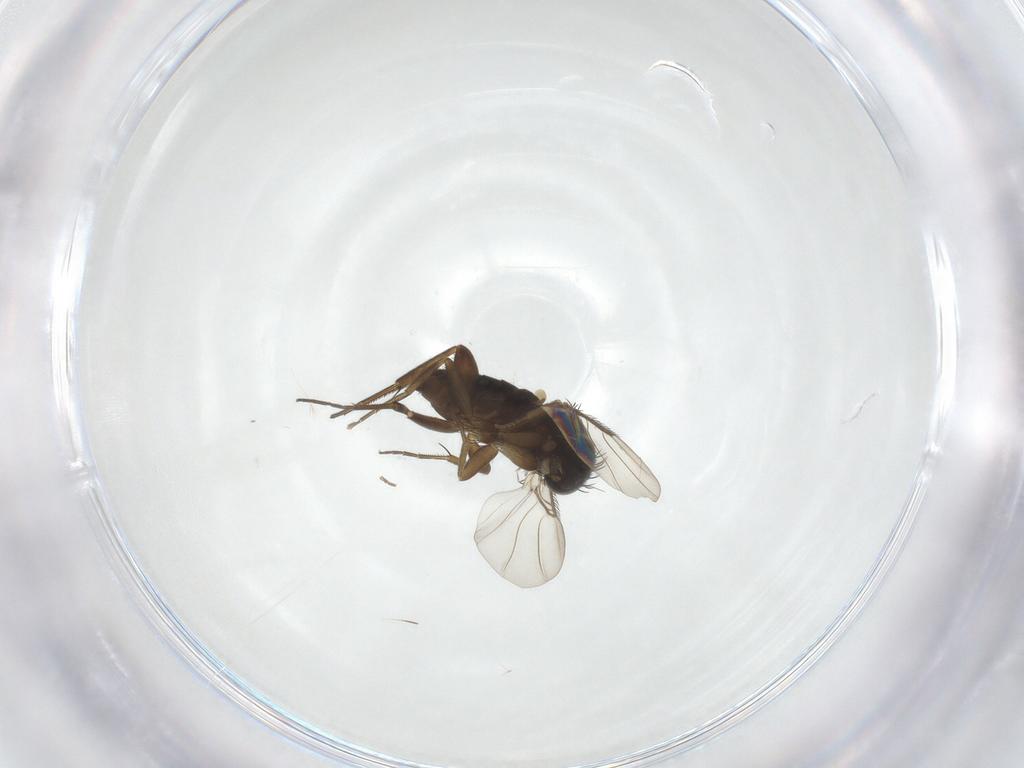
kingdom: Animalia
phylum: Arthropoda
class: Insecta
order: Diptera
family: Phoridae
